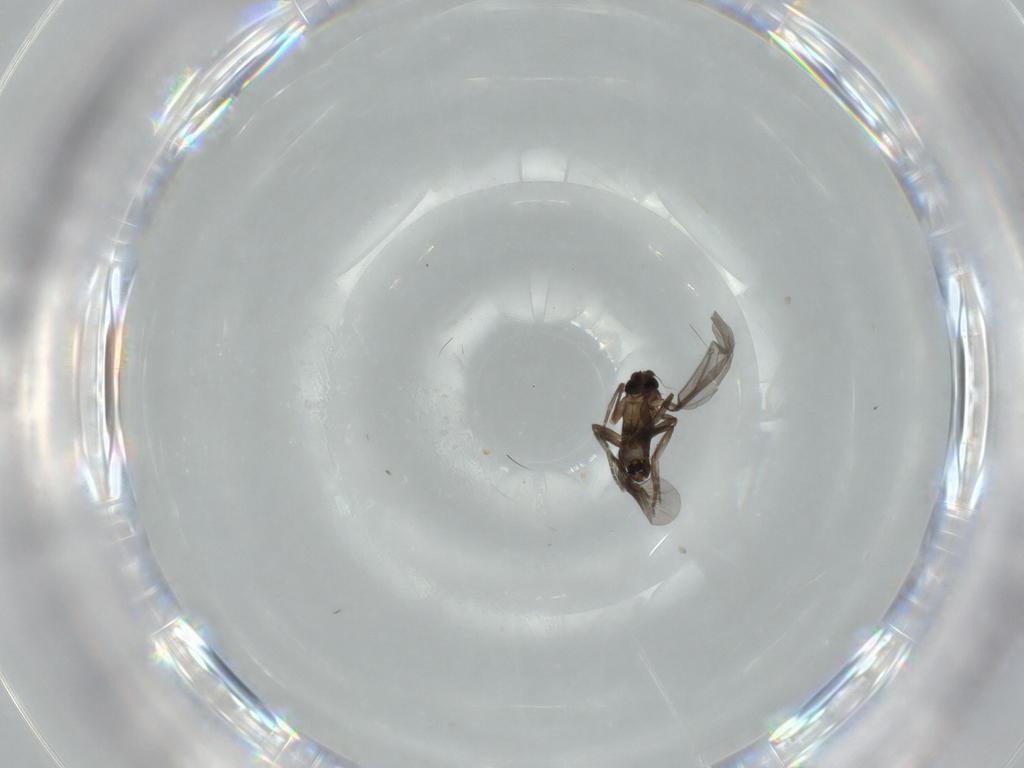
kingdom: Animalia
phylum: Arthropoda
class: Insecta
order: Diptera
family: Phoridae
